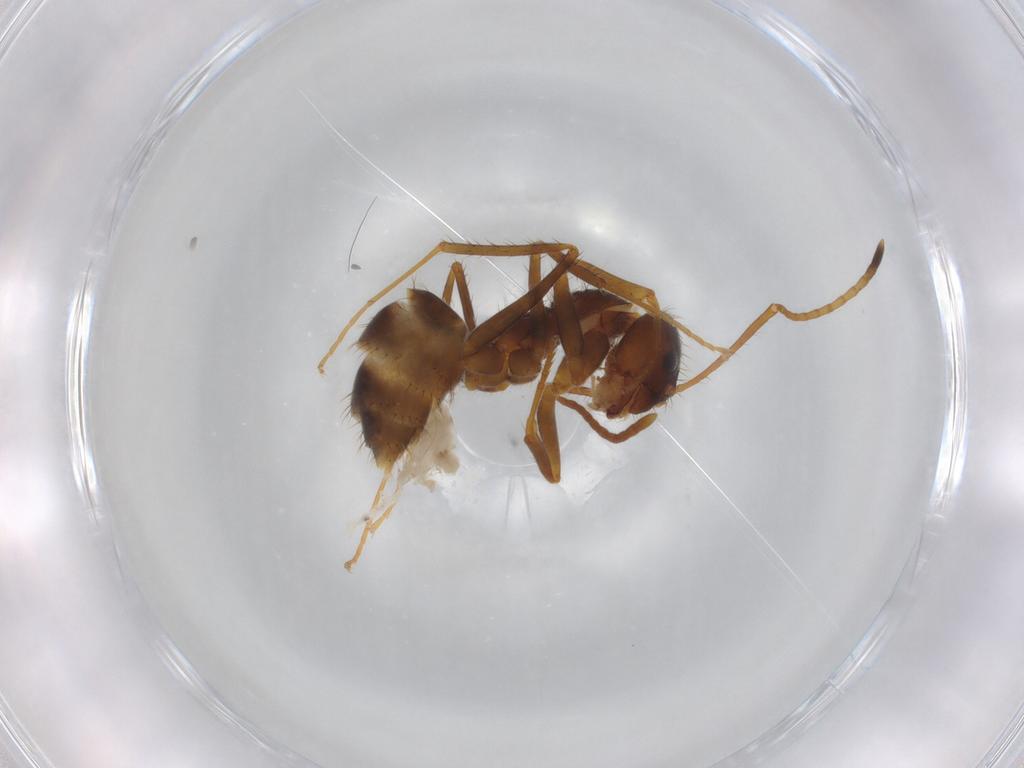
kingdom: Animalia
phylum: Arthropoda
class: Insecta
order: Hymenoptera
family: Formicidae
